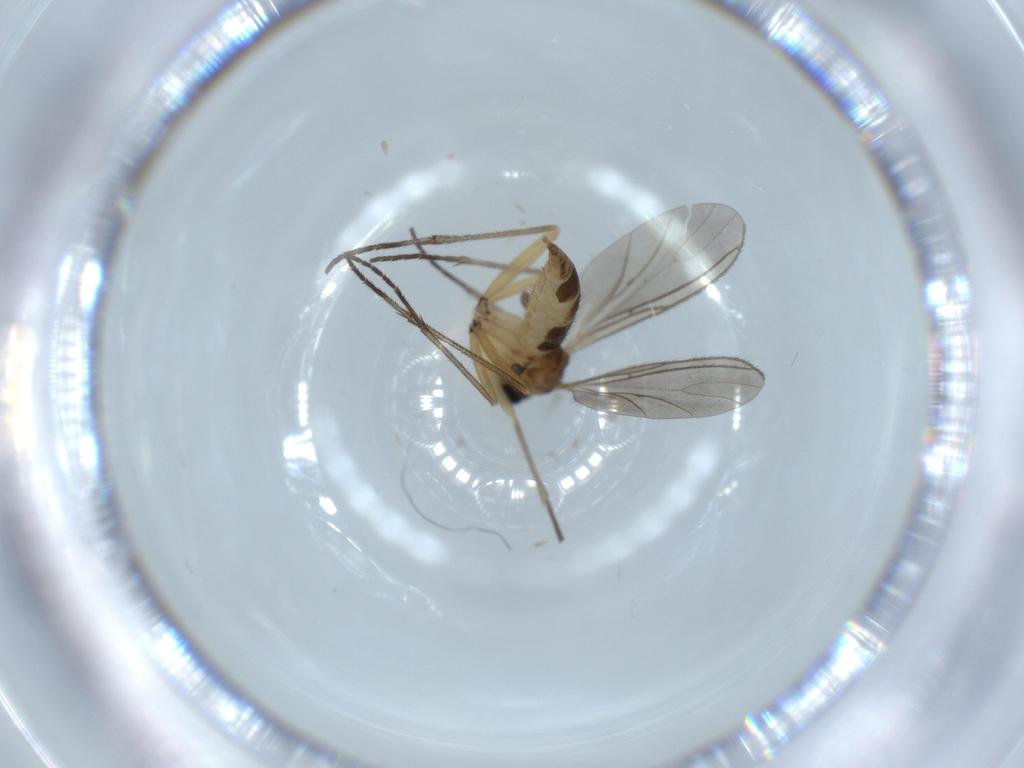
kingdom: Animalia
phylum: Arthropoda
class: Insecta
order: Diptera
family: Sciaridae
